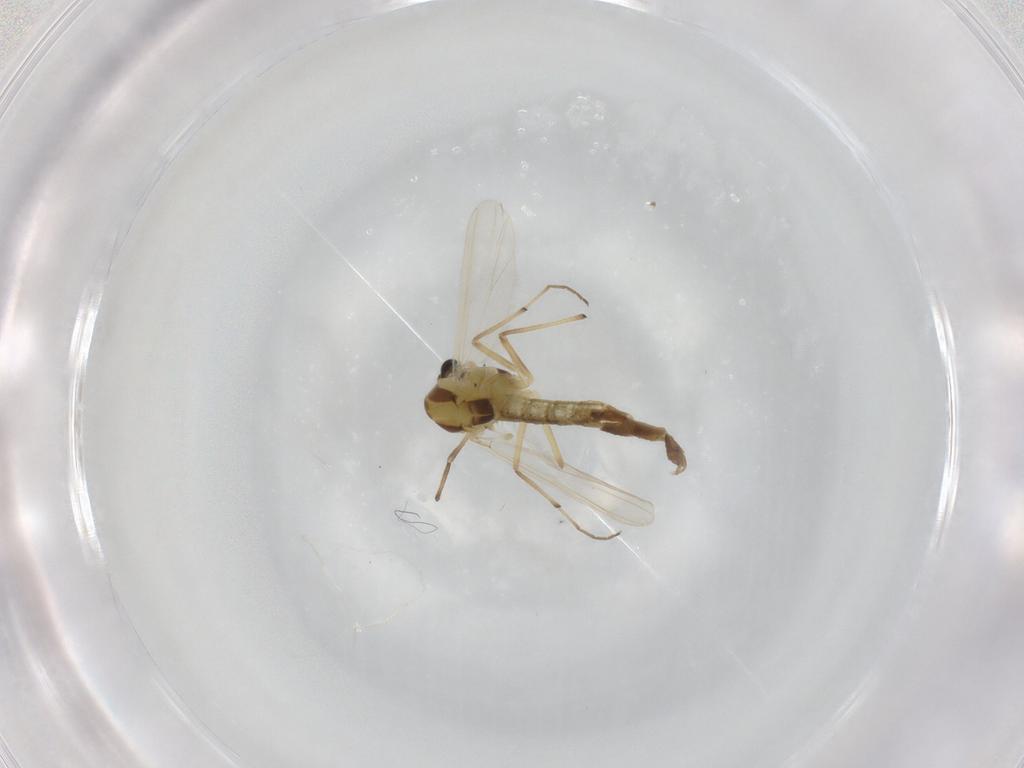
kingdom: Animalia
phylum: Arthropoda
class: Insecta
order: Diptera
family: Chironomidae
